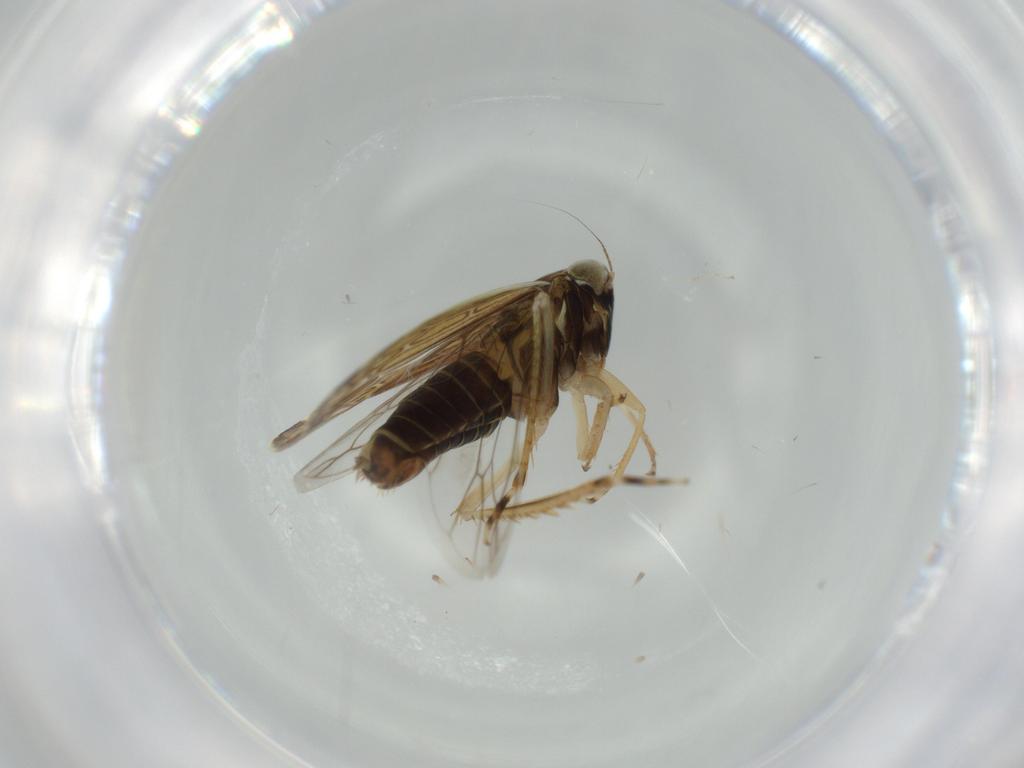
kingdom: Animalia
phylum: Arthropoda
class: Insecta
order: Hemiptera
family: Cicadellidae
